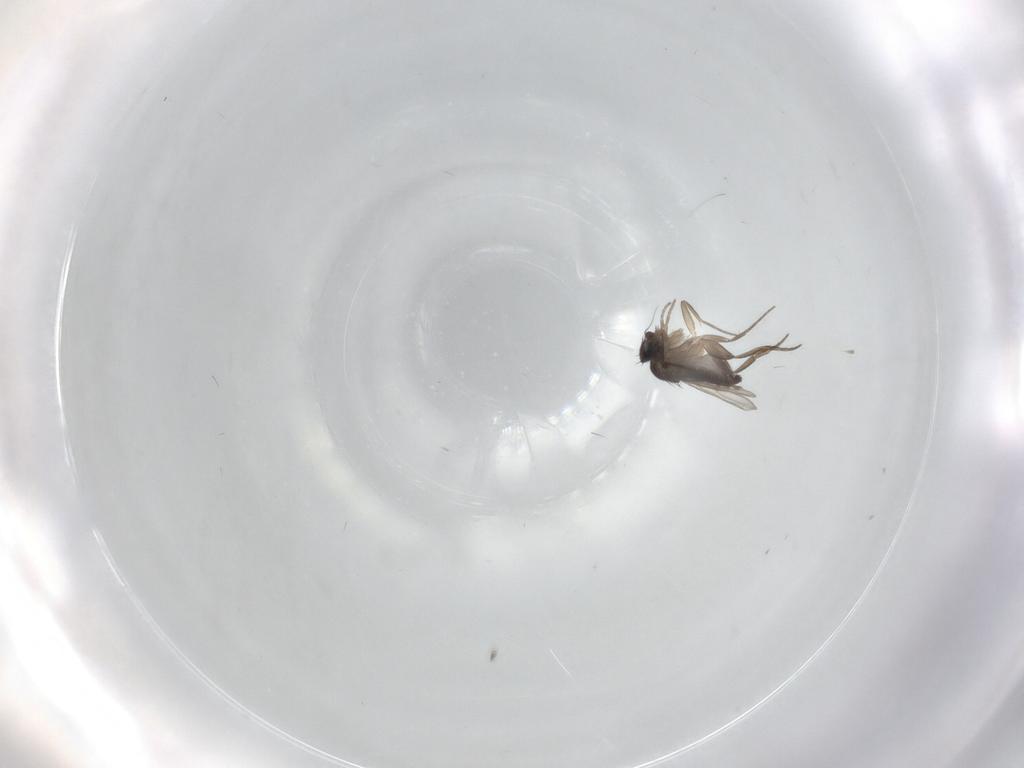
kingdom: Animalia
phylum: Arthropoda
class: Insecta
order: Diptera
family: Phoridae
